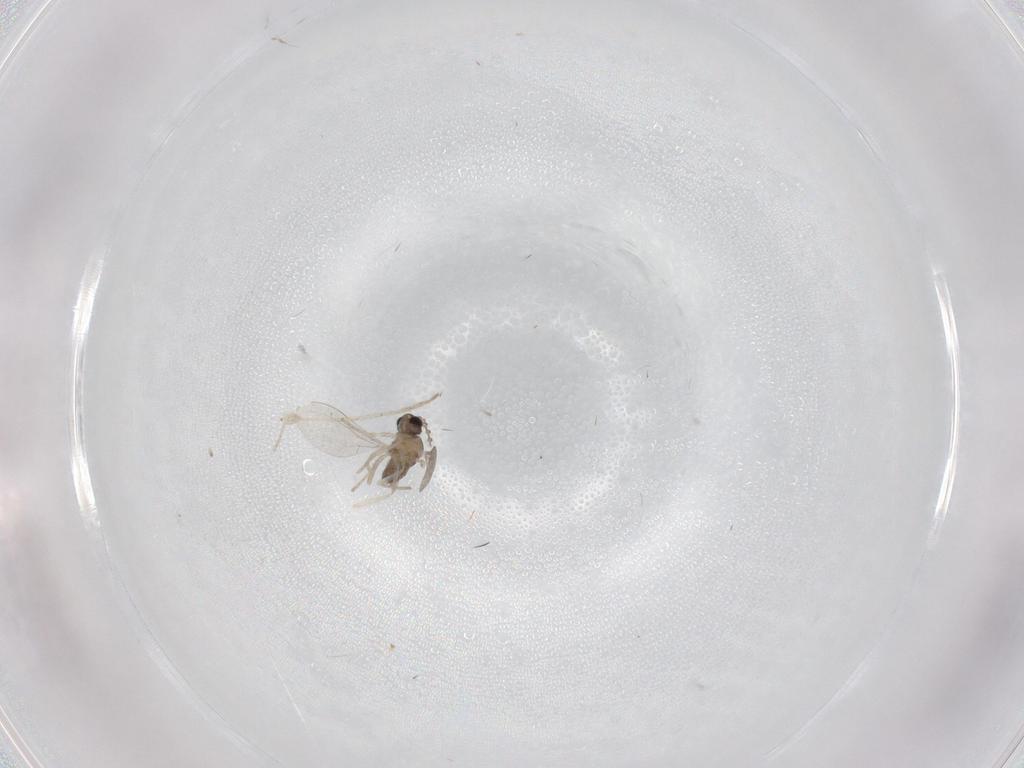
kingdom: Animalia
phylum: Arthropoda
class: Insecta
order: Diptera
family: Cecidomyiidae
